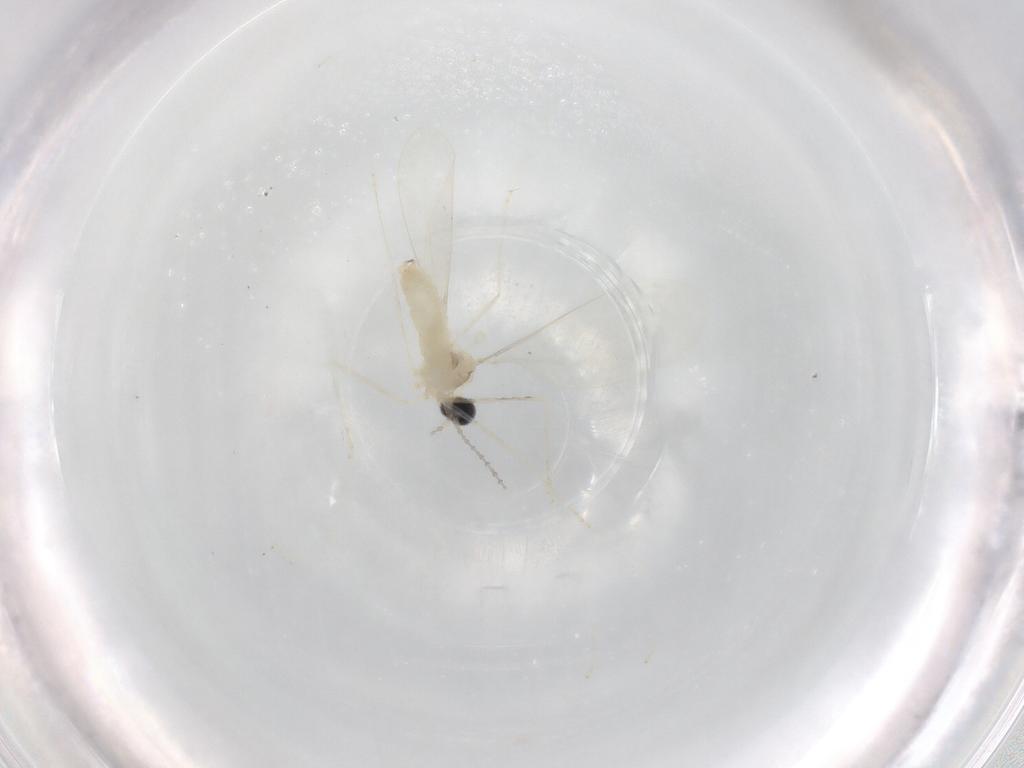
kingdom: Animalia
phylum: Arthropoda
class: Insecta
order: Diptera
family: Cecidomyiidae
